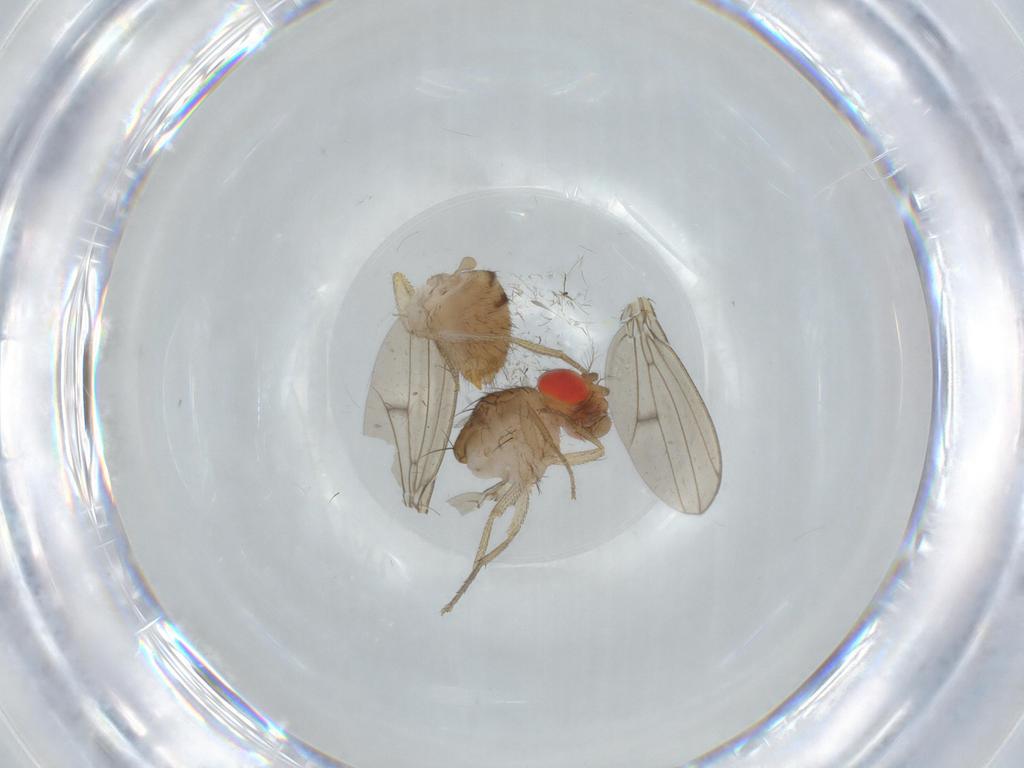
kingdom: Animalia
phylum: Arthropoda
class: Insecta
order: Diptera
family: Drosophilidae
